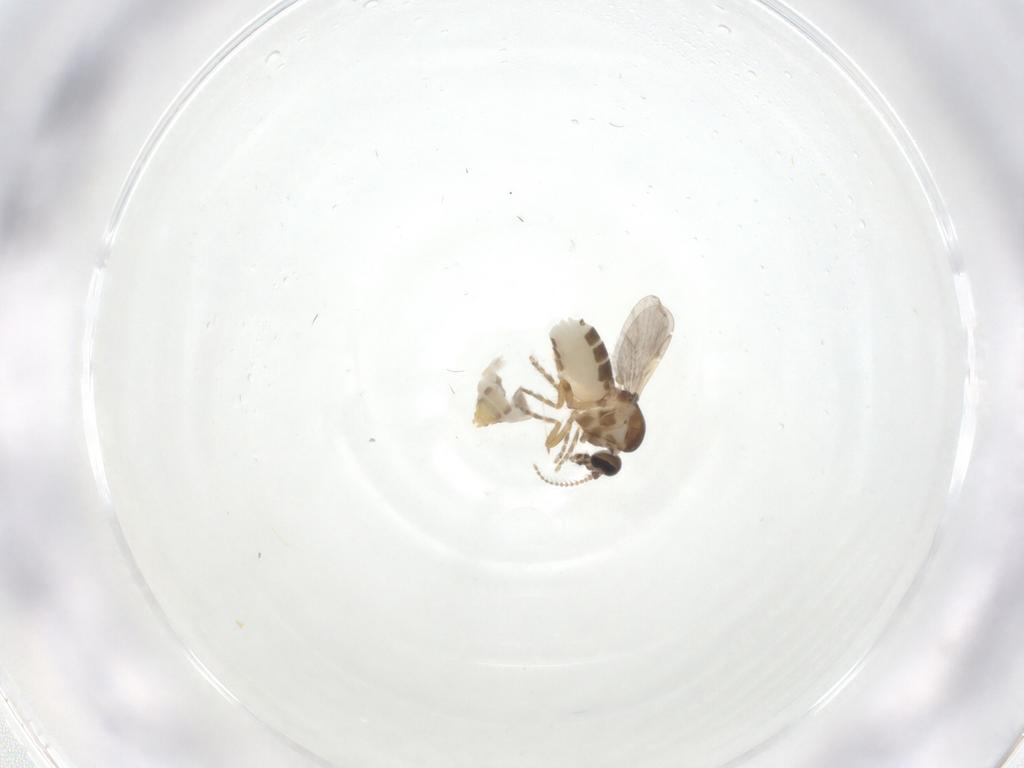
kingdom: Animalia
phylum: Arthropoda
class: Insecta
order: Diptera
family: Ceratopogonidae
